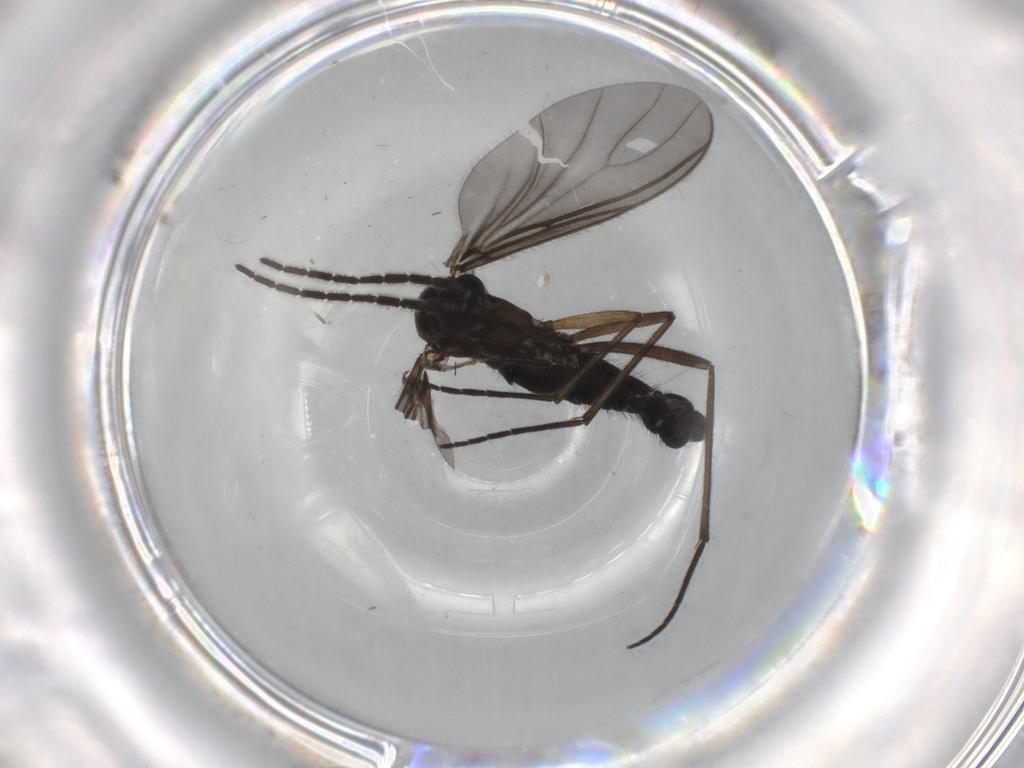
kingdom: Animalia
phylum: Arthropoda
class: Insecta
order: Diptera
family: Sciaridae
